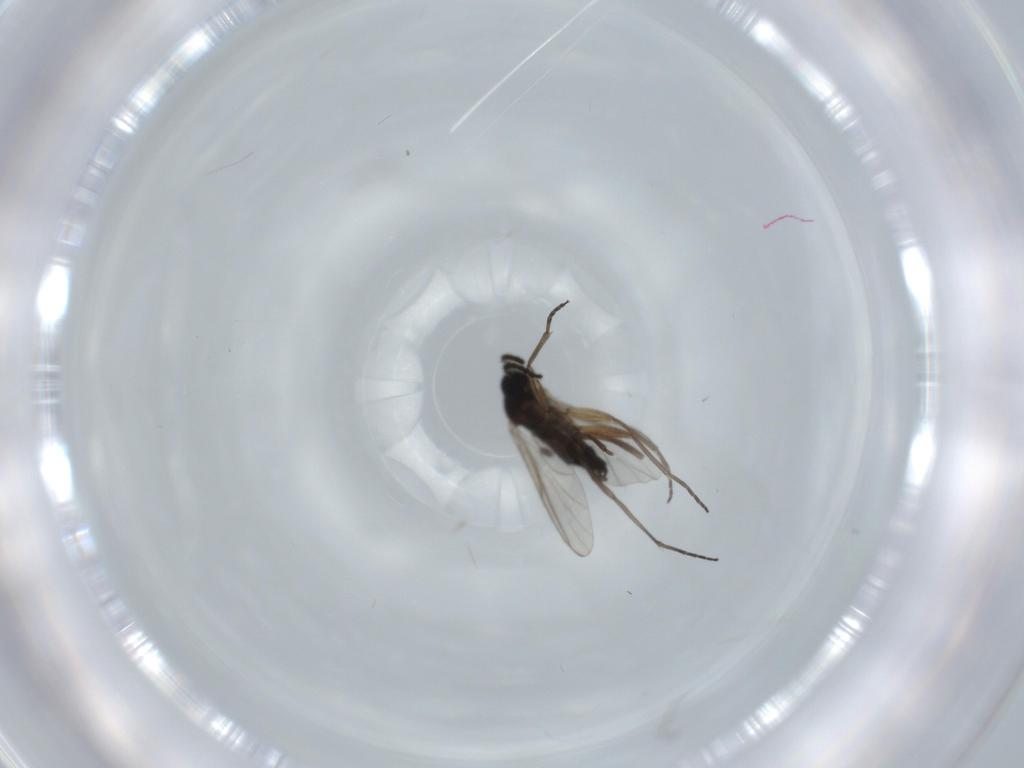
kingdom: Animalia
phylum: Arthropoda
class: Insecta
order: Diptera
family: Sciaridae
